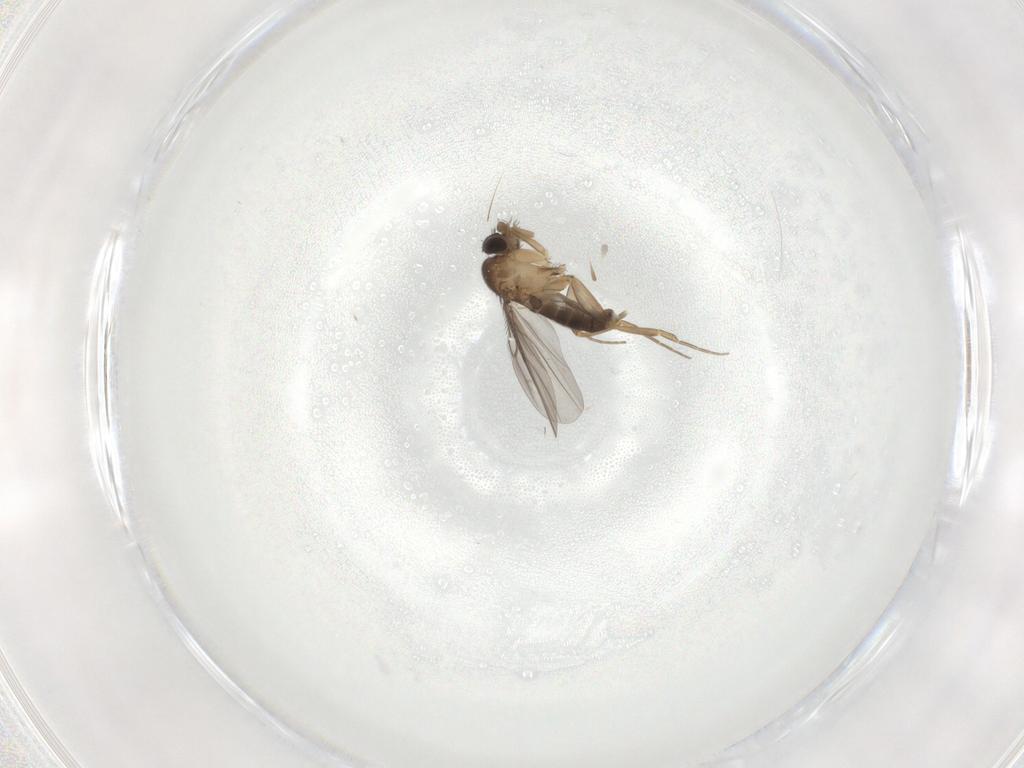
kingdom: Animalia
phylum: Arthropoda
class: Insecta
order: Diptera
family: Cecidomyiidae
